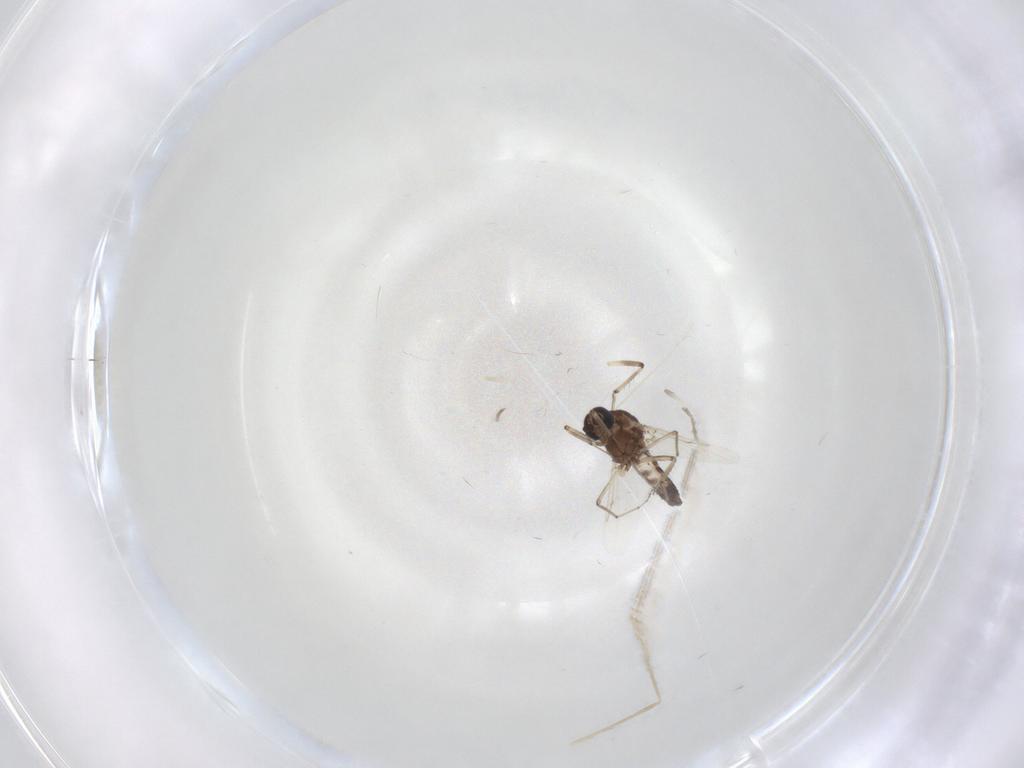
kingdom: Animalia
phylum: Arthropoda
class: Insecta
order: Diptera
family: Ceratopogonidae
